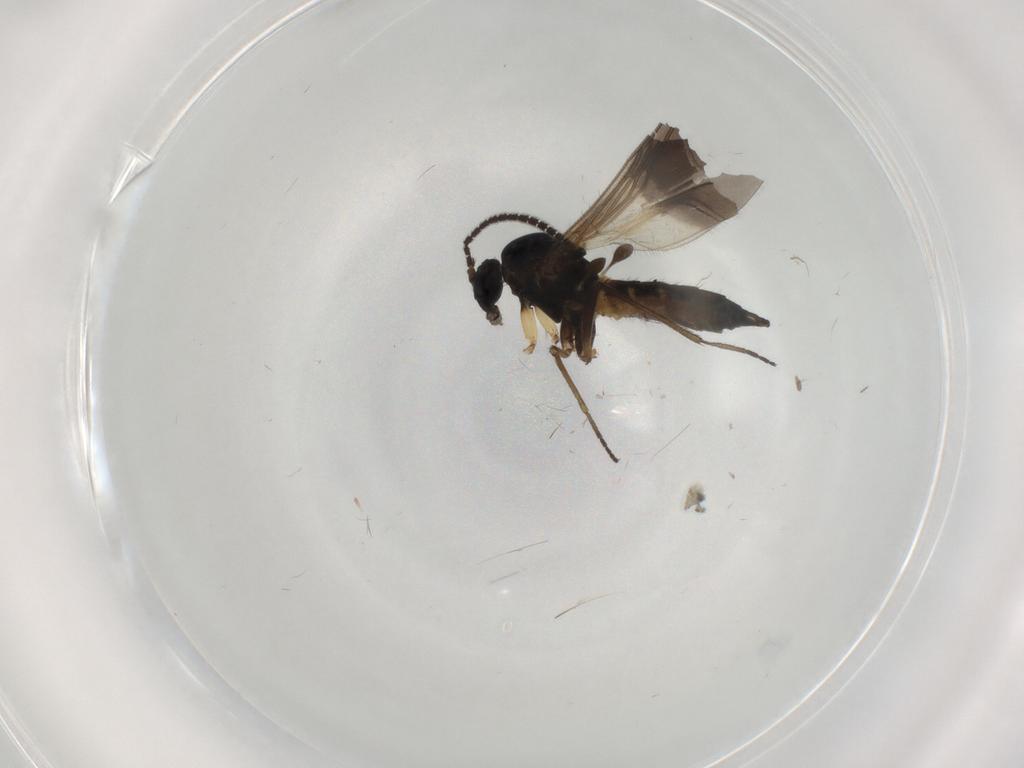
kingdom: Animalia
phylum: Arthropoda
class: Insecta
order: Diptera
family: Sciaridae
